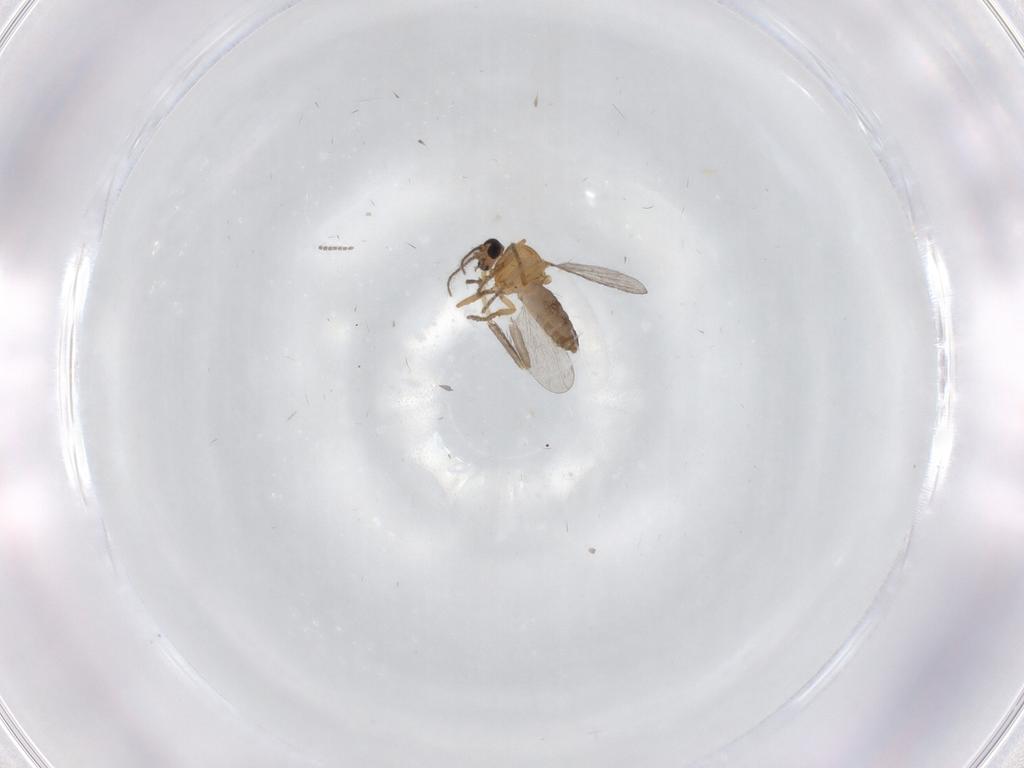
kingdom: Animalia
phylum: Arthropoda
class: Insecta
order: Diptera
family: Ceratopogonidae
